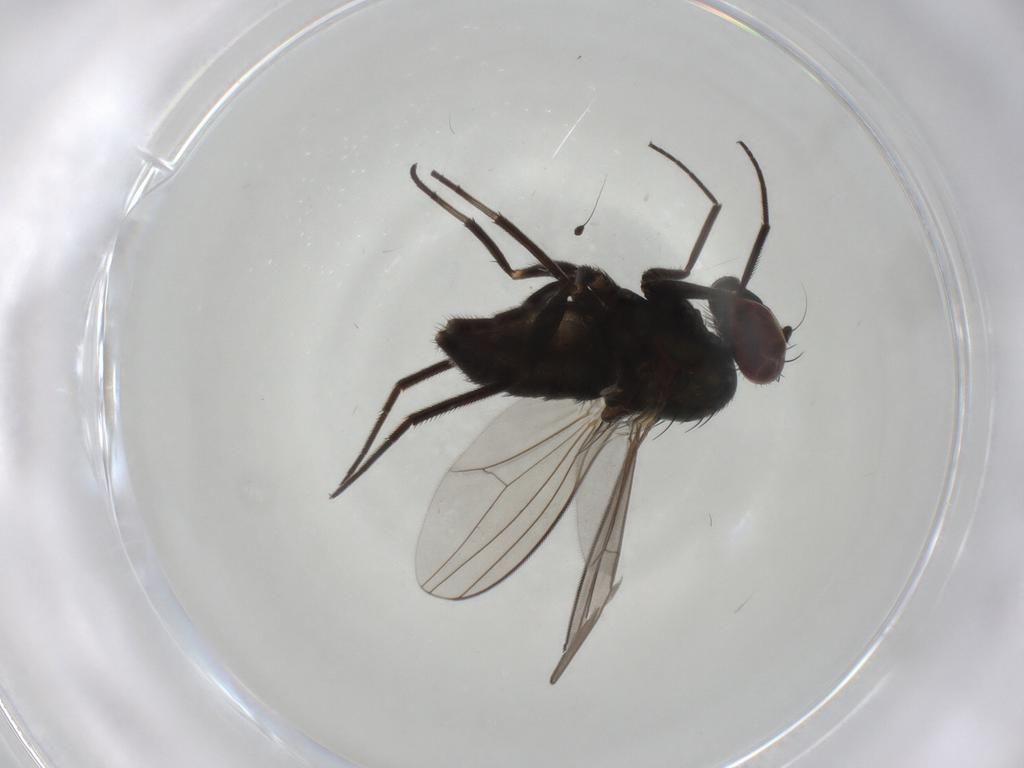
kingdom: Animalia
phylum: Arthropoda
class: Insecta
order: Diptera
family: Dolichopodidae
